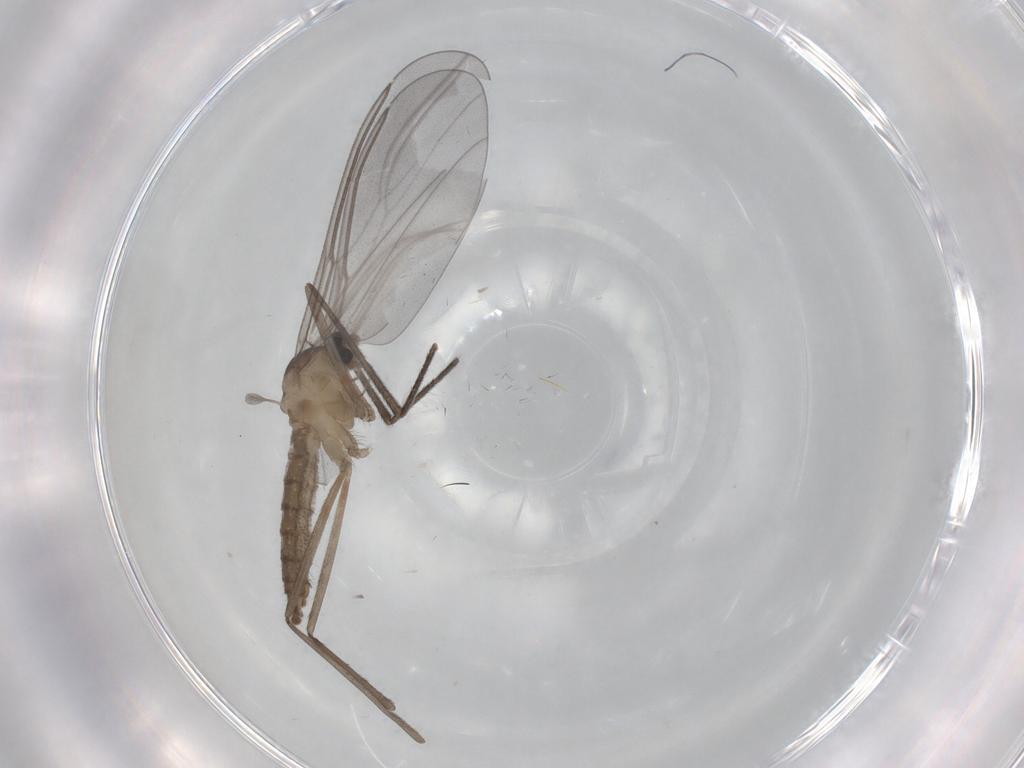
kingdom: Animalia
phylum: Arthropoda
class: Insecta
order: Diptera
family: Cecidomyiidae
